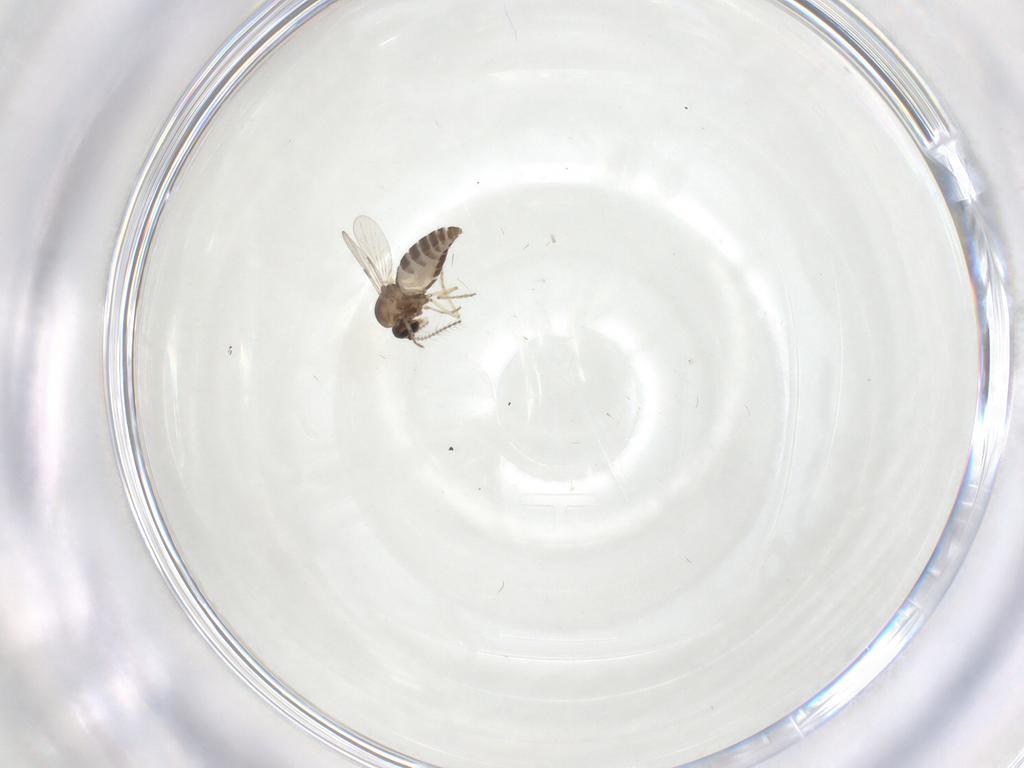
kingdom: Animalia
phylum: Arthropoda
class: Insecta
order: Diptera
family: Ceratopogonidae
